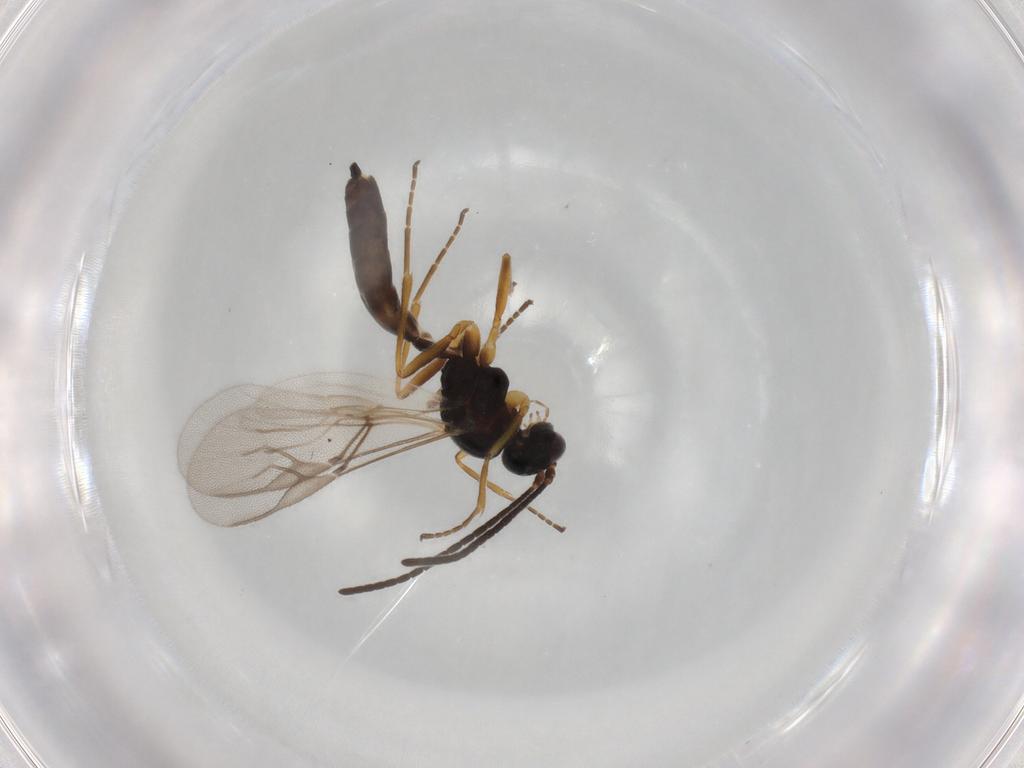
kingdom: Animalia
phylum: Arthropoda
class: Insecta
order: Hymenoptera
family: Braconidae
